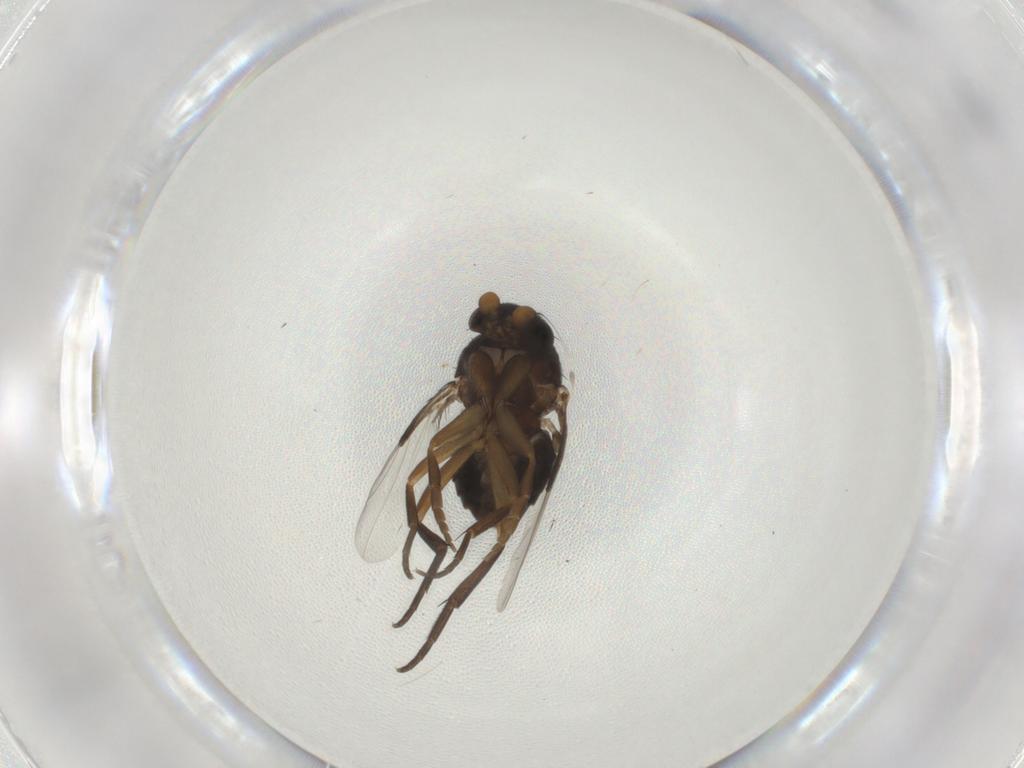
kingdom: Animalia
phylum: Arthropoda
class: Insecta
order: Diptera
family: Phoridae
